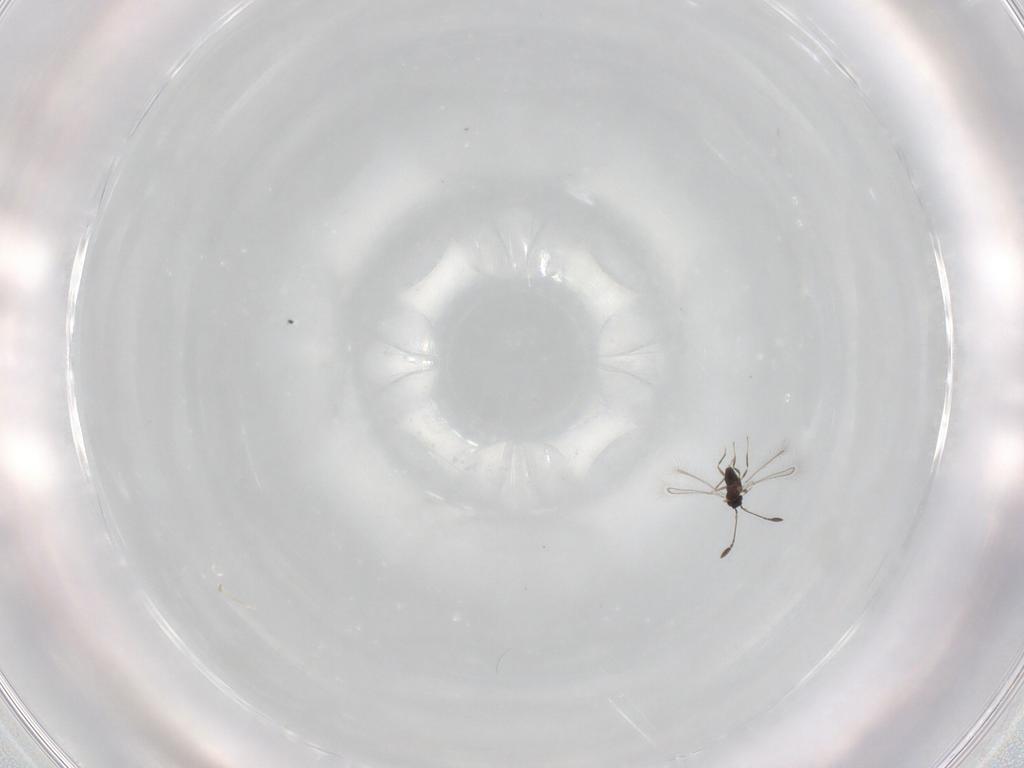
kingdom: Animalia
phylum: Arthropoda
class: Insecta
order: Hymenoptera
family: Mymaridae
